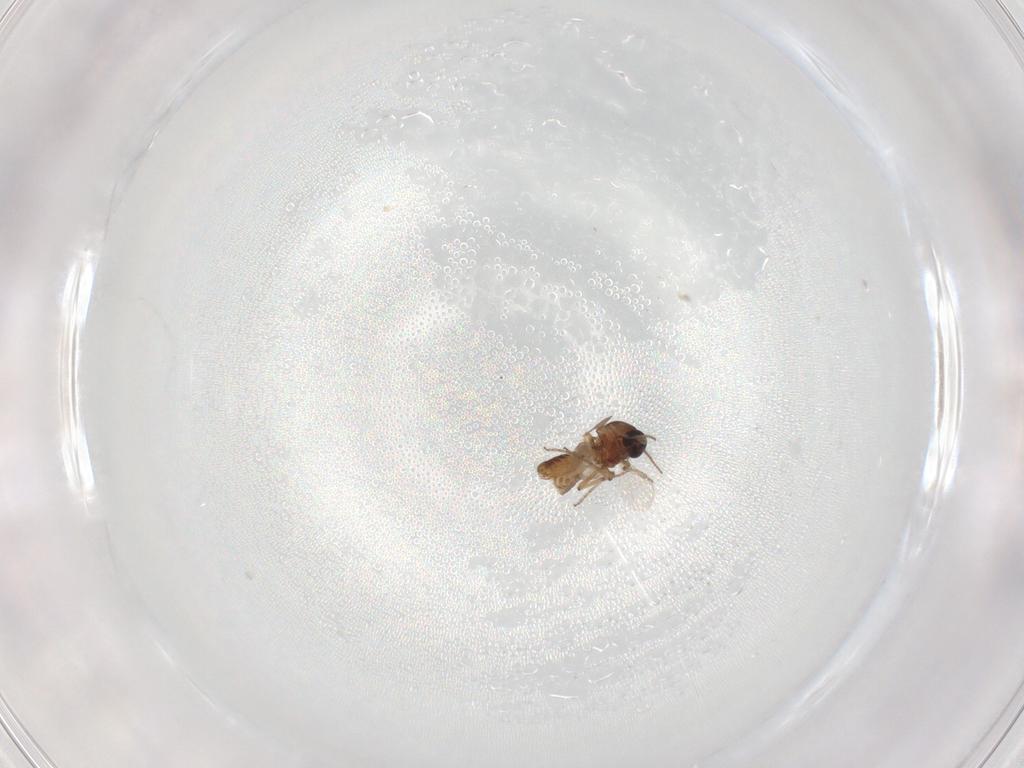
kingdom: Animalia
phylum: Arthropoda
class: Insecta
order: Diptera
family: Ceratopogonidae
